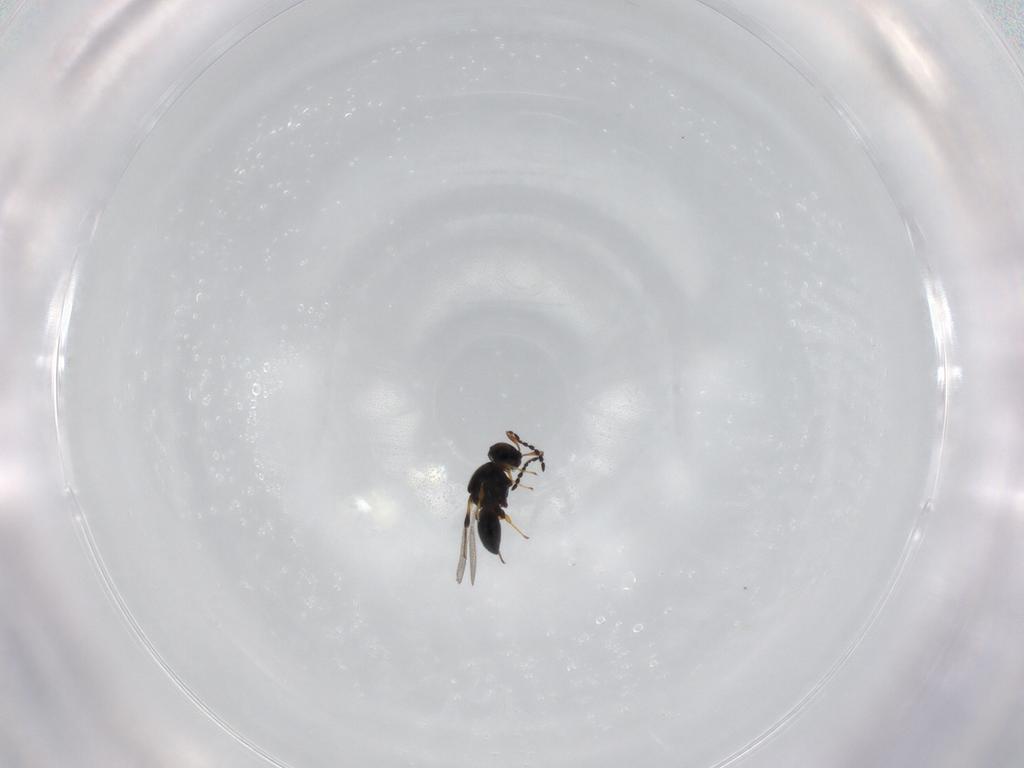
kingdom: Animalia
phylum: Arthropoda
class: Insecta
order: Hymenoptera
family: Platygastridae
